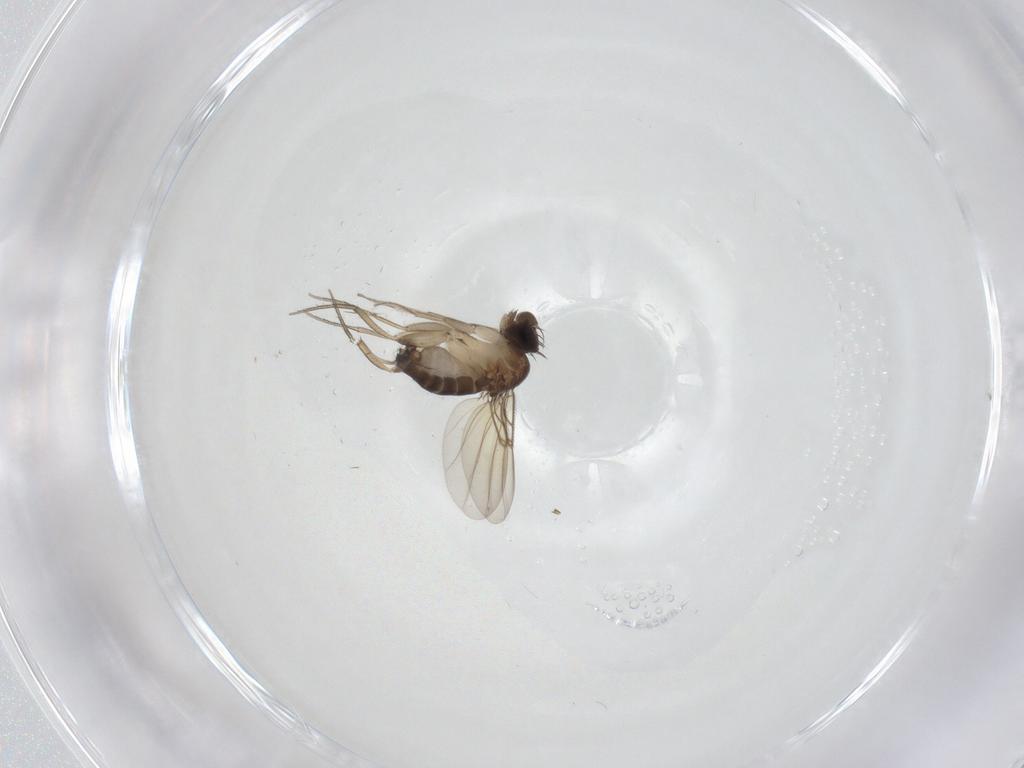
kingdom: Animalia
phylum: Arthropoda
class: Insecta
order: Diptera
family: Phoridae
